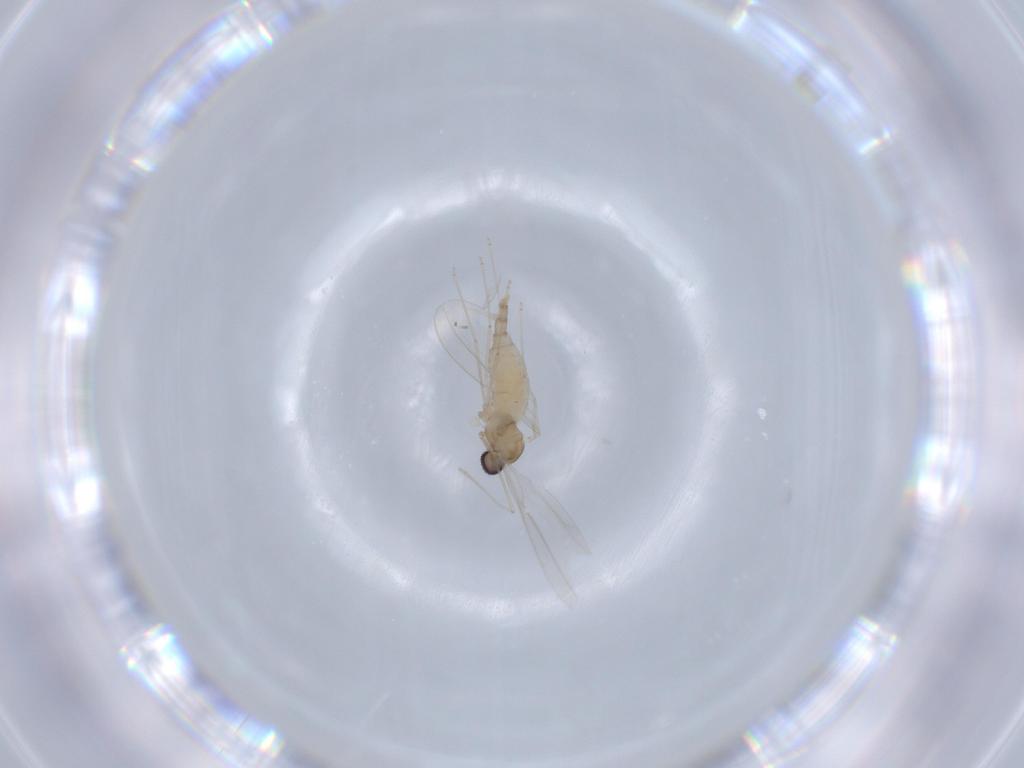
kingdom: Animalia
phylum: Arthropoda
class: Insecta
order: Diptera
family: Cecidomyiidae
